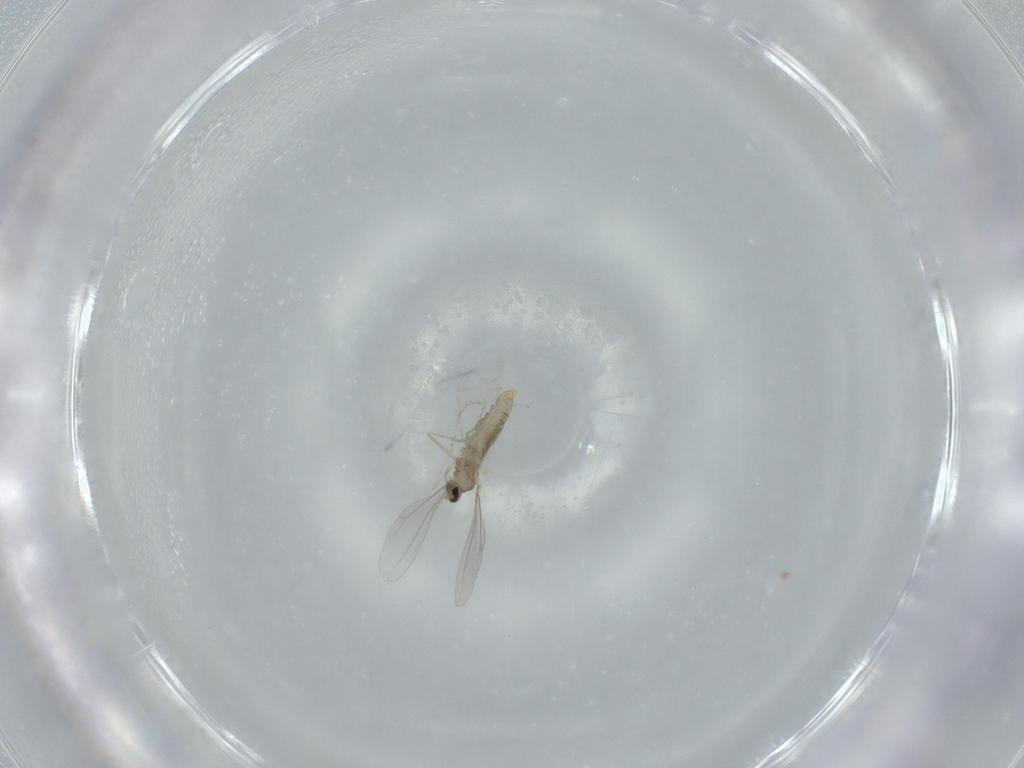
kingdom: Animalia
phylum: Arthropoda
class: Insecta
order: Diptera
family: Cecidomyiidae
